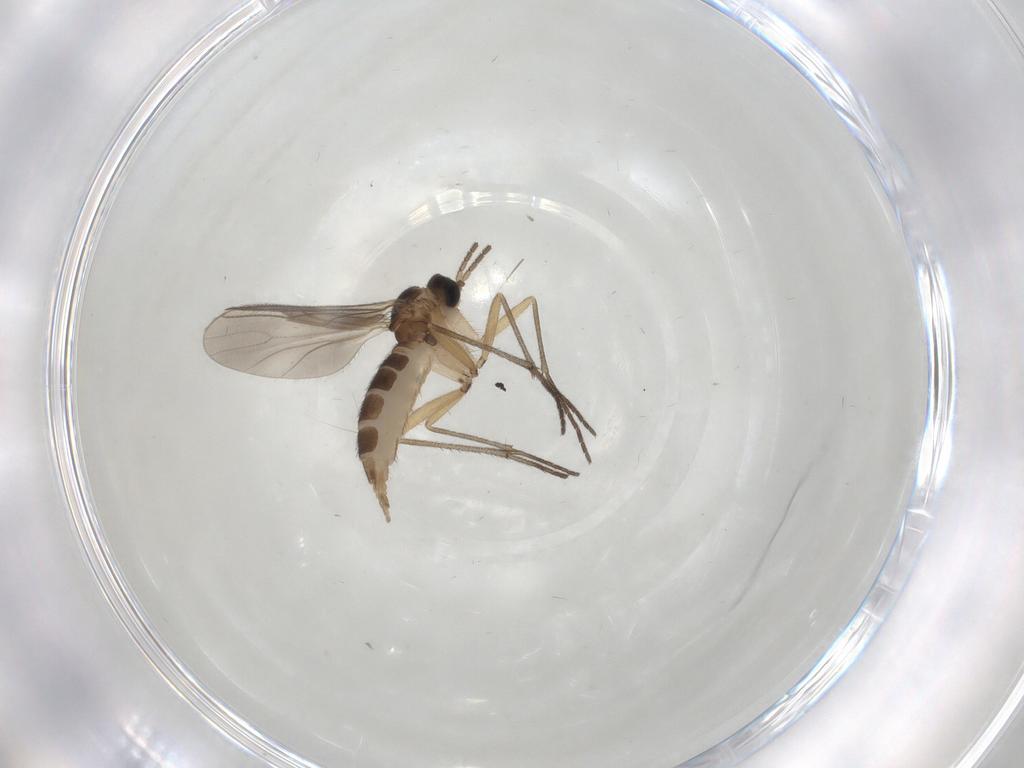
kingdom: Animalia
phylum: Arthropoda
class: Insecta
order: Diptera
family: Sciaridae
